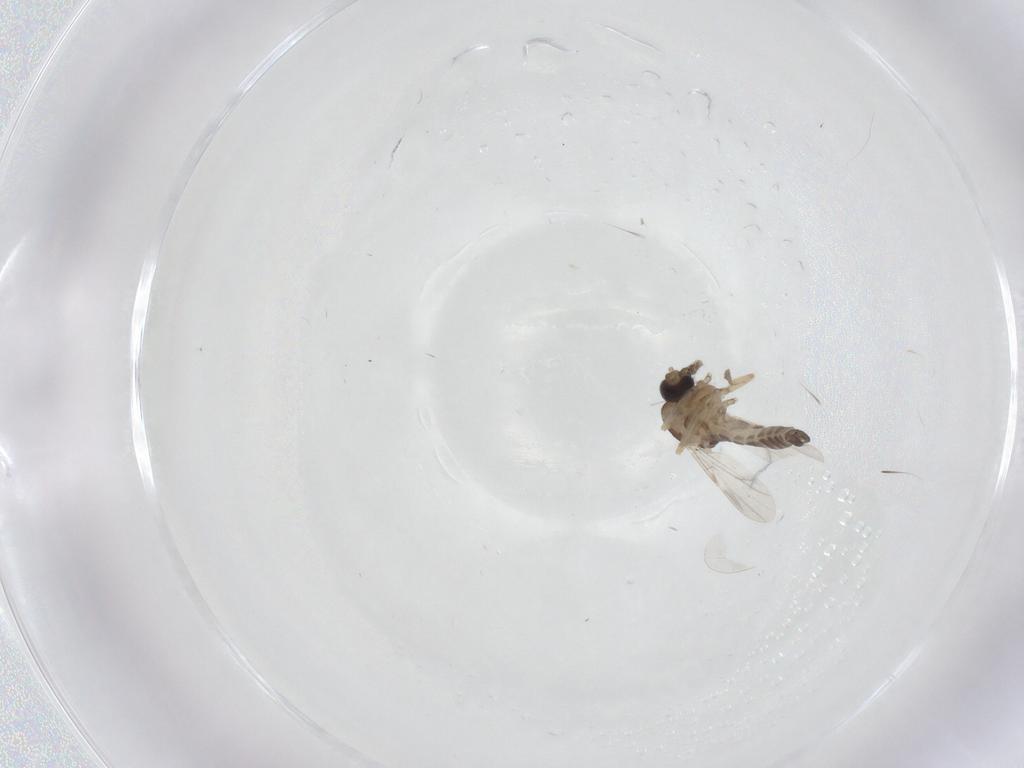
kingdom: Animalia
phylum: Arthropoda
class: Insecta
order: Diptera
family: Ceratopogonidae
